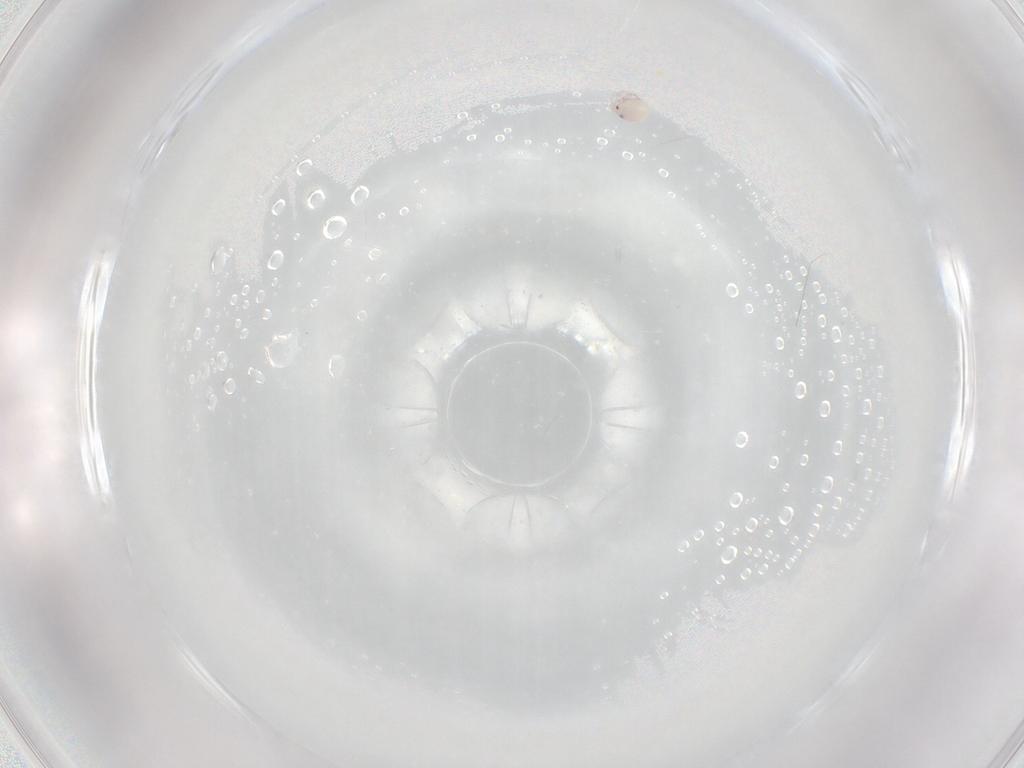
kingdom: Animalia
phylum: Arthropoda
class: Arachnida
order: Trombidiformes
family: Lebertiidae
